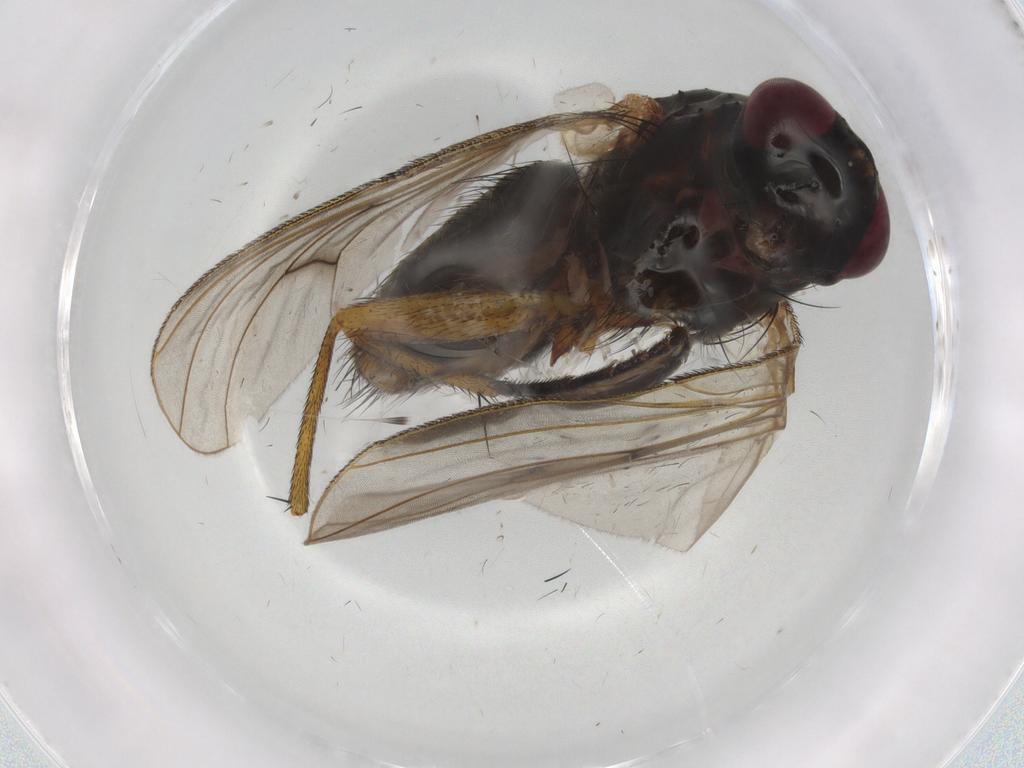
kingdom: Animalia
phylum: Arthropoda
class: Insecta
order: Diptera
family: Muscidae
